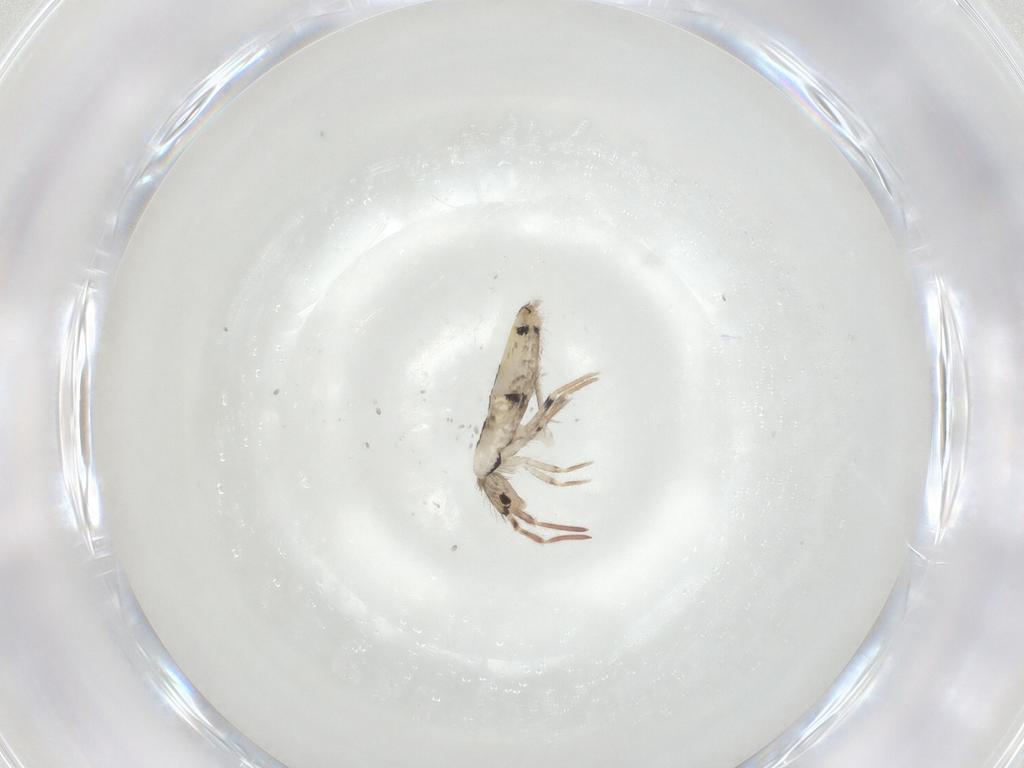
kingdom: Animalia
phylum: Arthropoda
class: Collembola
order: Entomobryomorpha
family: Entomobryidae
